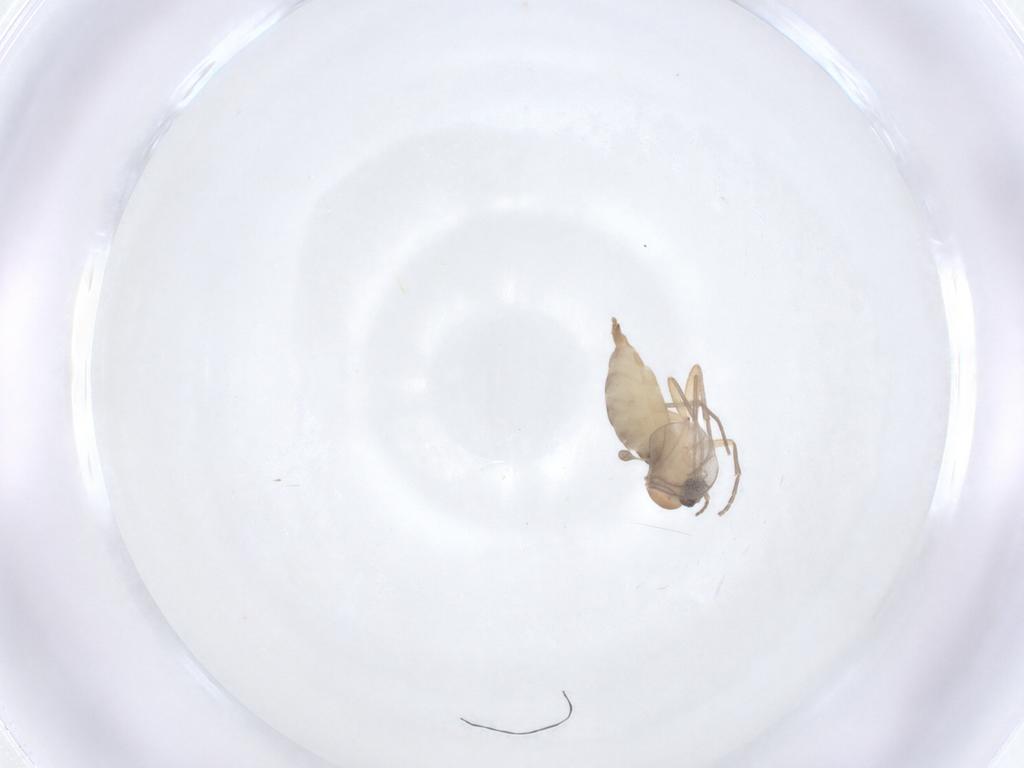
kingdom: Animalia
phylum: Arthropoda
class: Insecta
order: Diptera
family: Sciaridae
